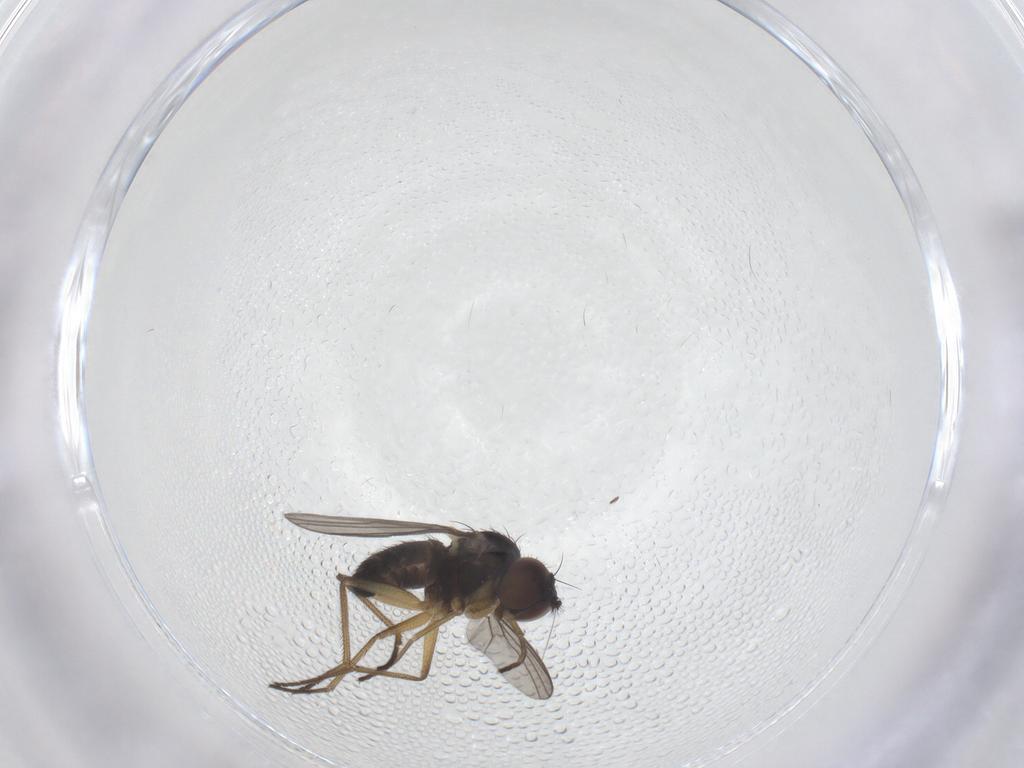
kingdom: Animalia
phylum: Arthropoda
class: Insecta
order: Diptera
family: Dolichopodidae
